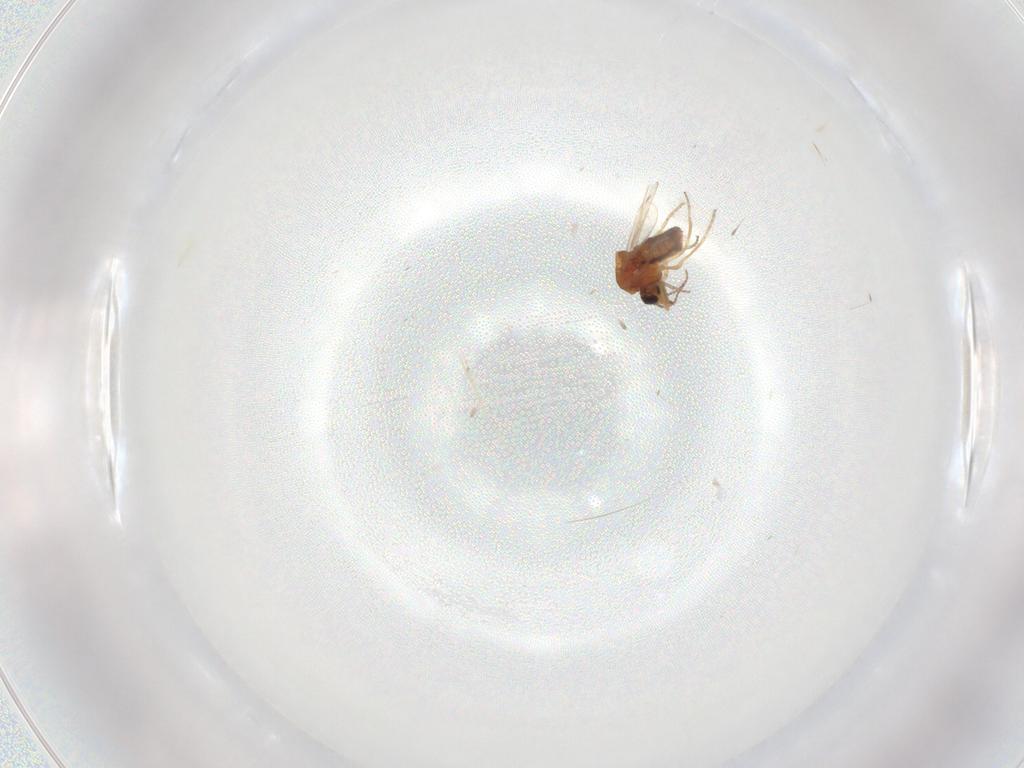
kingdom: Animalia
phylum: Arthropoda
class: Insecta
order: Diptera
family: Ceratopogonidae
